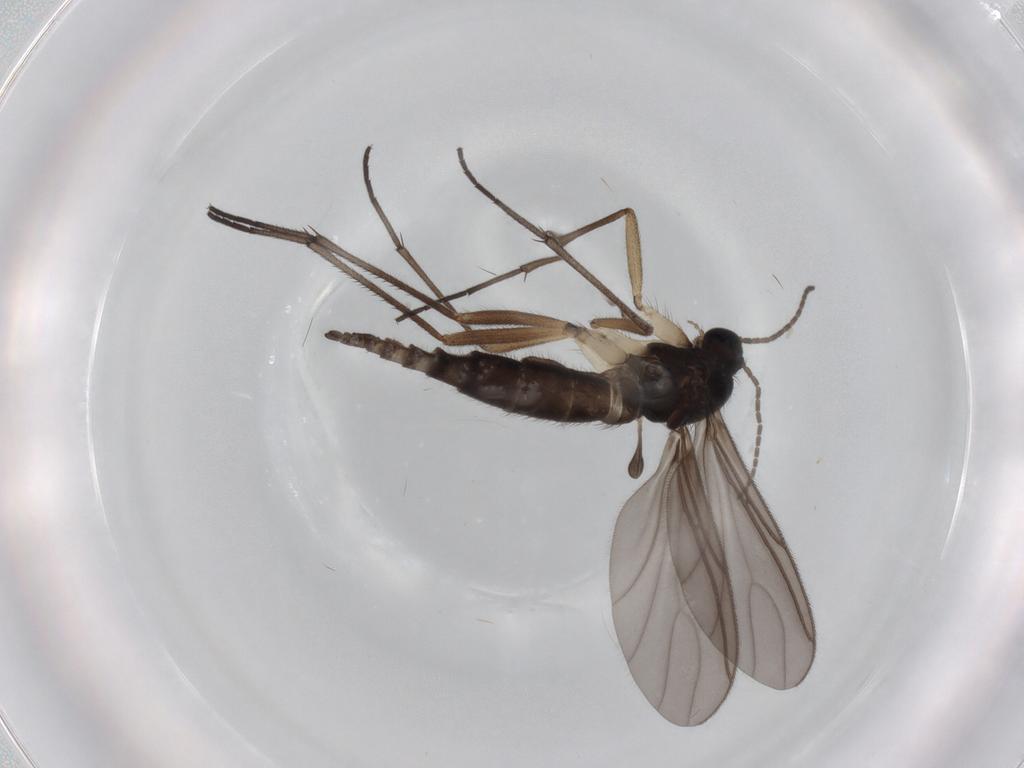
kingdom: Animalia
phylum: Arthropoda
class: Insecta
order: Diptera
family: Sciaridae
